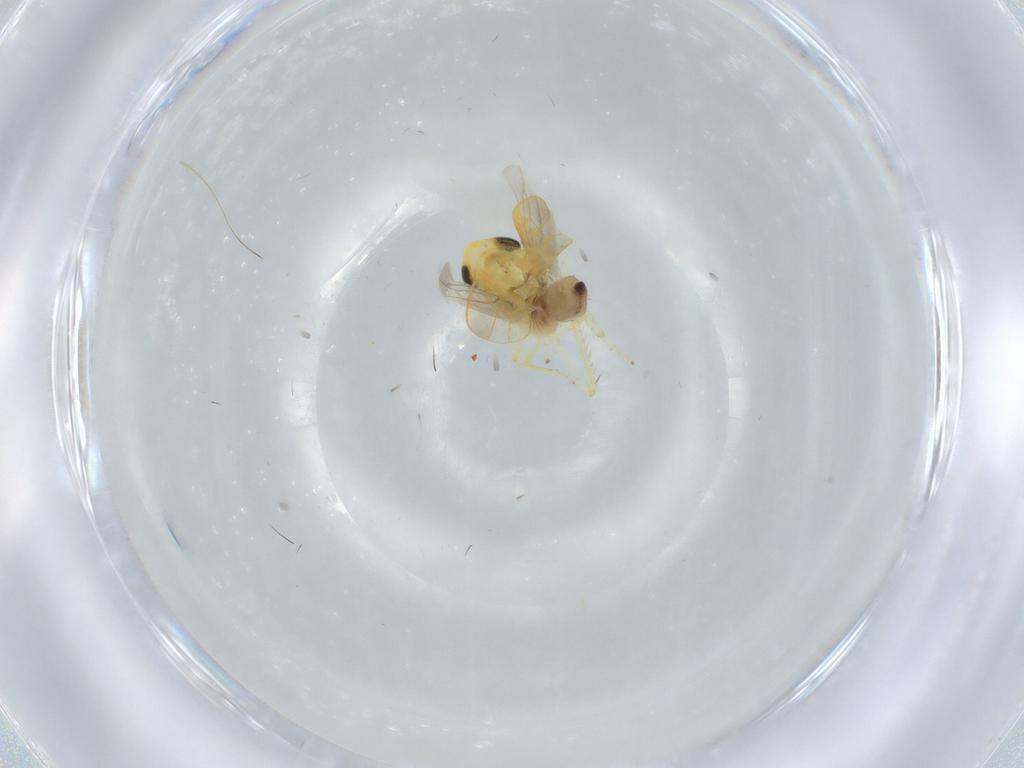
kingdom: Animalia
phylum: Arthropoda
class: Insecta
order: Hemiptera
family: Cicadellidae
